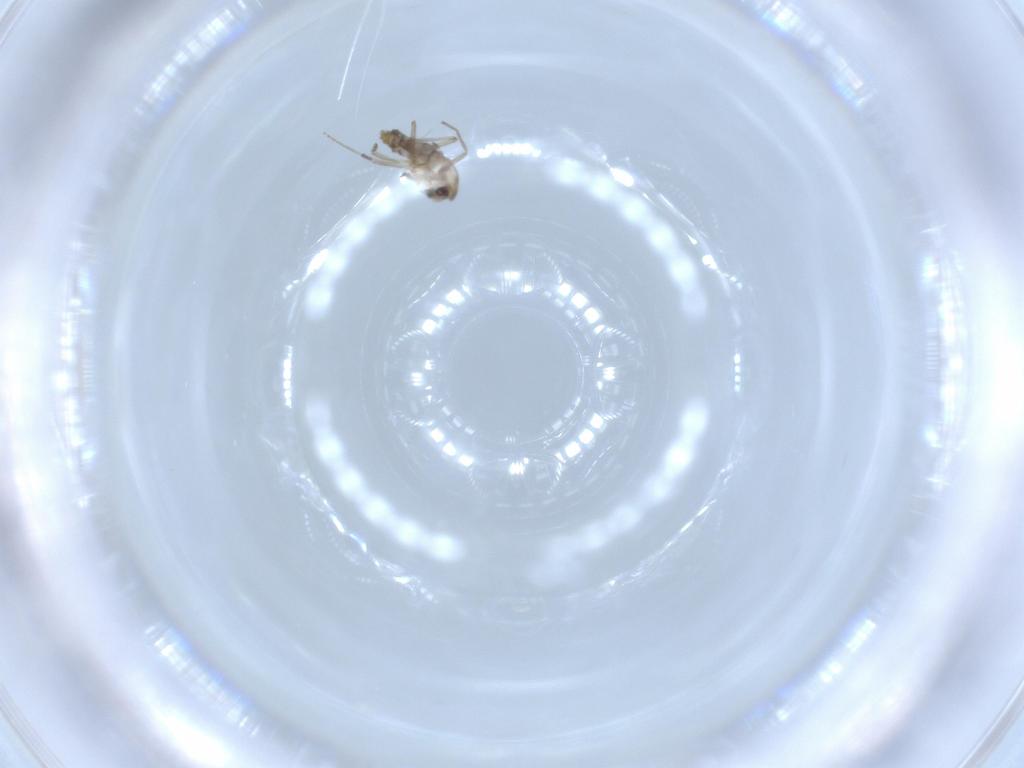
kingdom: Animalia
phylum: Arthropoda
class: Insecta
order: Diptera
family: Chironomidae
